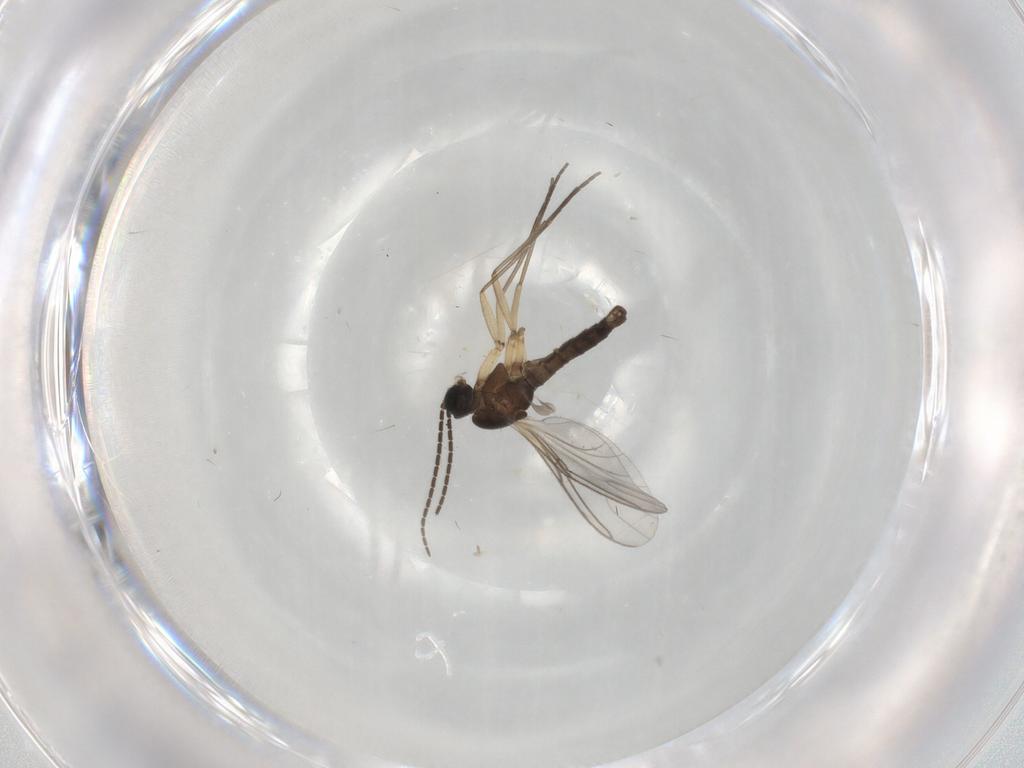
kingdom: Animalia
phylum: Arthropoda
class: Insecta
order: Diptera
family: Sciaridae
